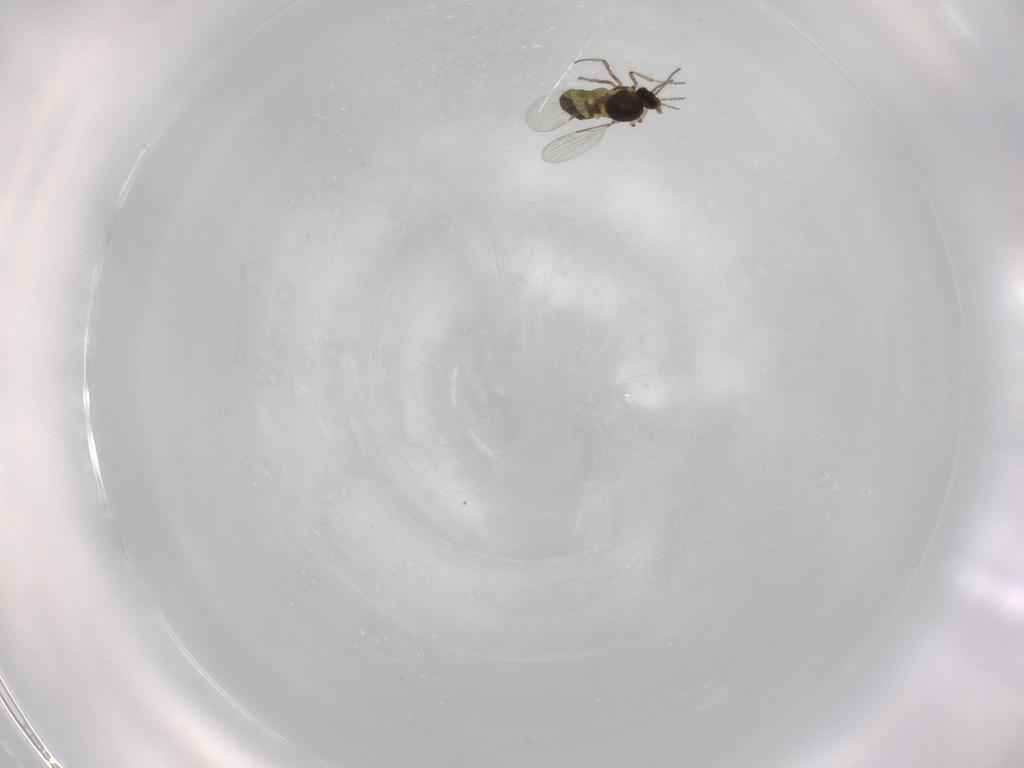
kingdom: Animalia
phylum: Arthropoda
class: Insecta
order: Diptera
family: Ceratopogonidae
